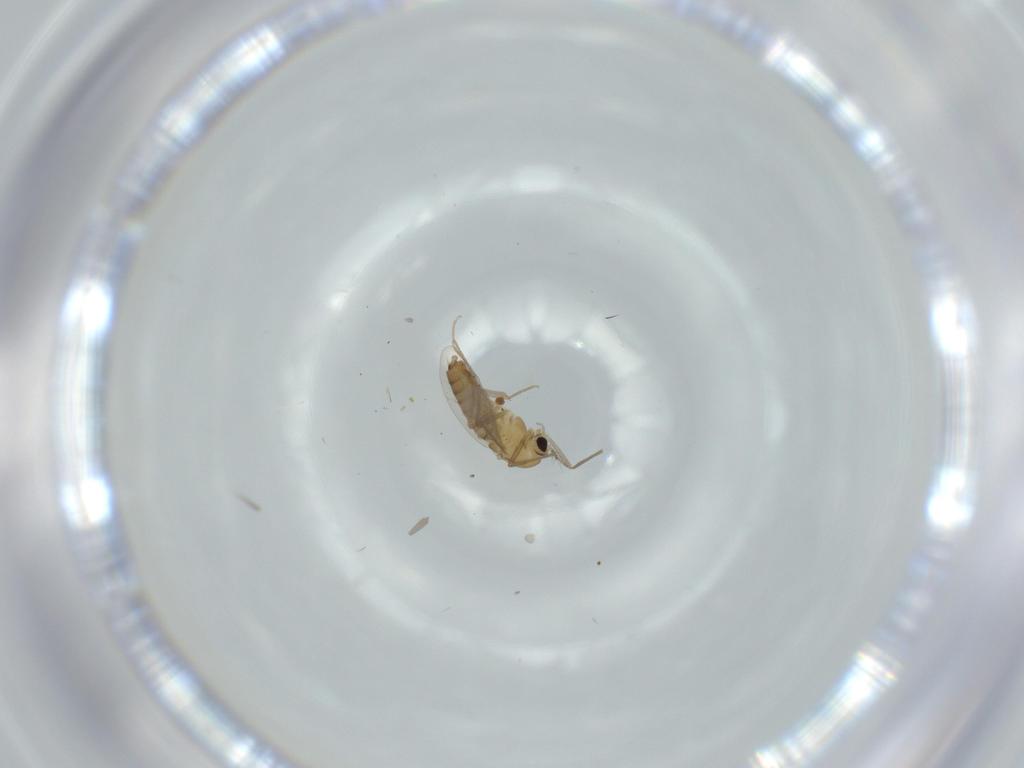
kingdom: Animalia
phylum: Arthropoda
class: Insecta
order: Diptera
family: Chironomidae
